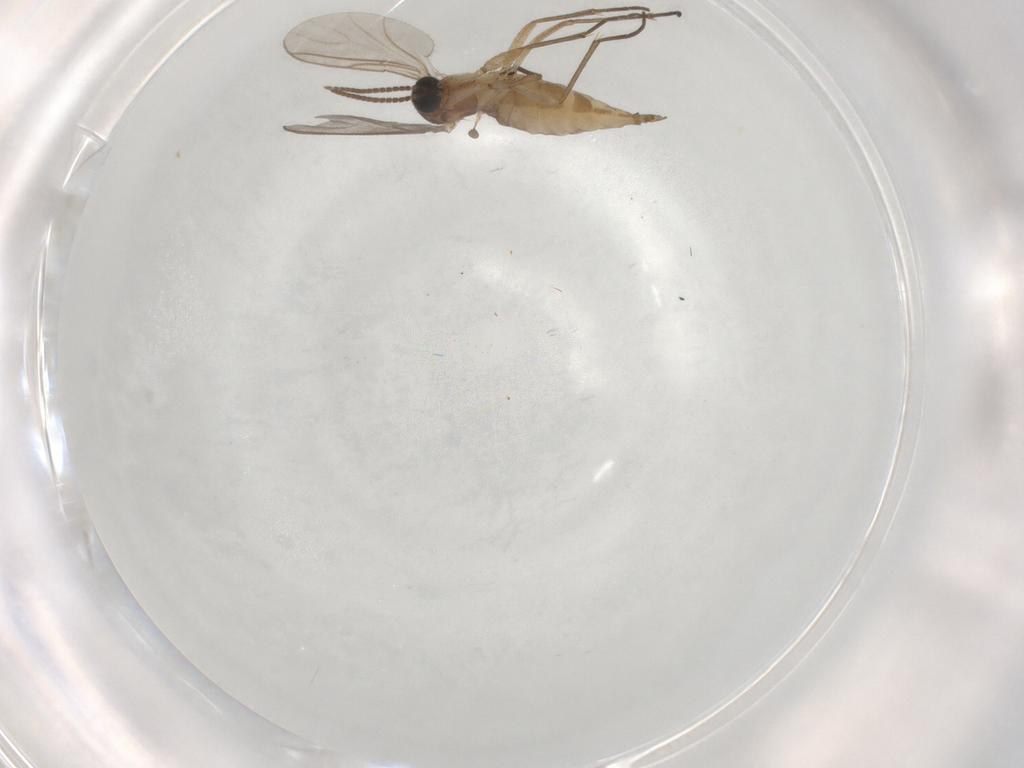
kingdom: Animalia
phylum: Arthropoda
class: Insecta
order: Diptera
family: Sciaridae
